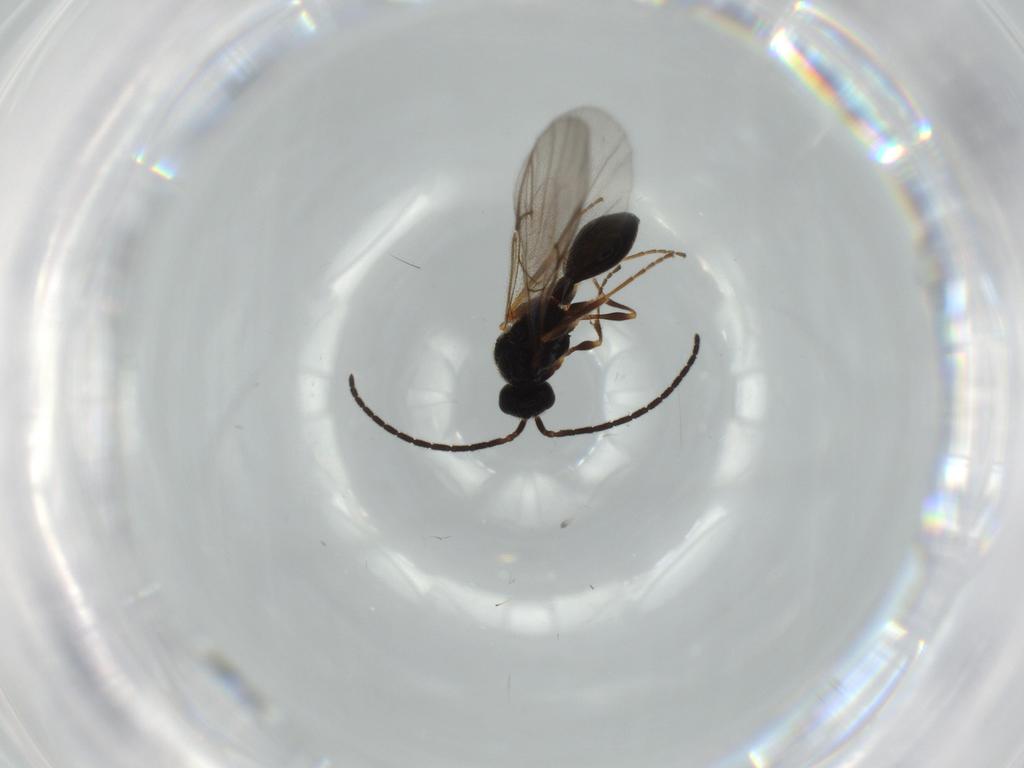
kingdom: Animalia
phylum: Arthropoda
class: Insecta
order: Hymenoptera
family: Diapriidae
